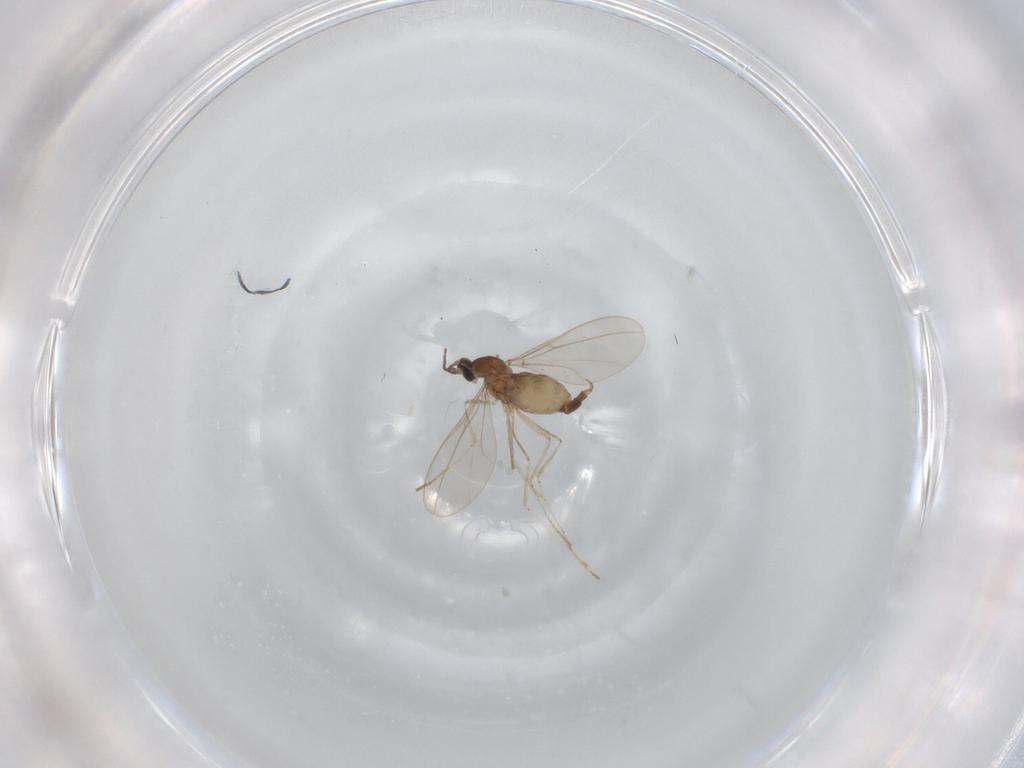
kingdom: Animalia
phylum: Arthropoda
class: Insecta
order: Diptera
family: Cecidomyiidae
